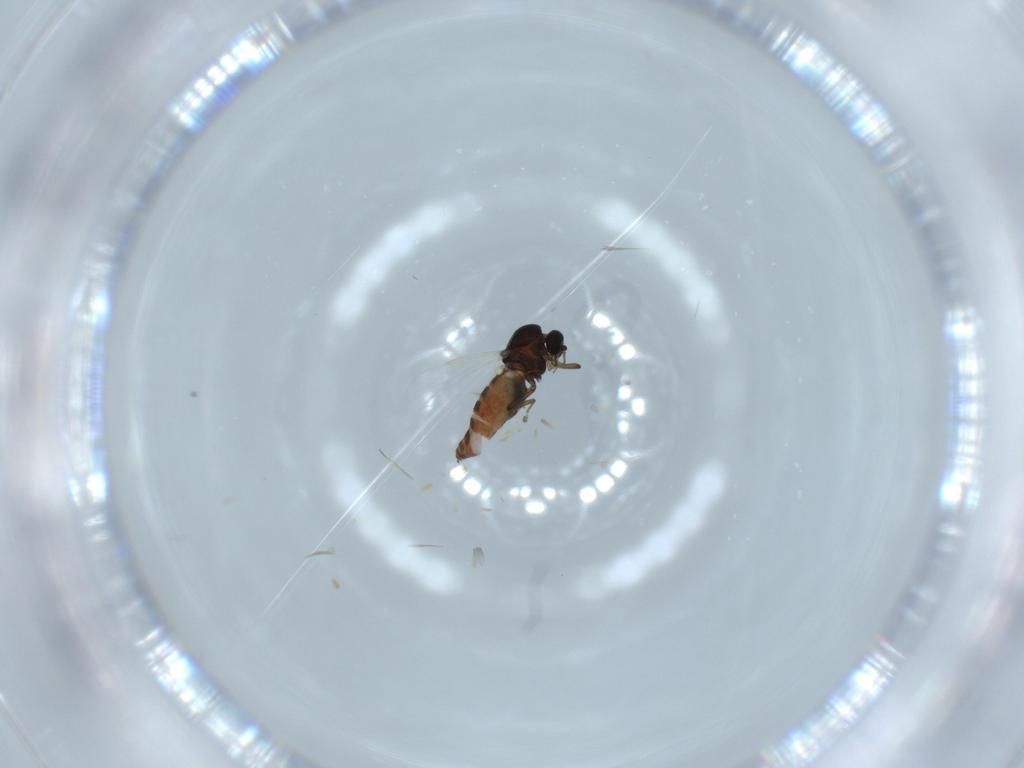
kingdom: Animalia
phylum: Arthropoda
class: Insecta
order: Diptera
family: Ceratopogonidae
